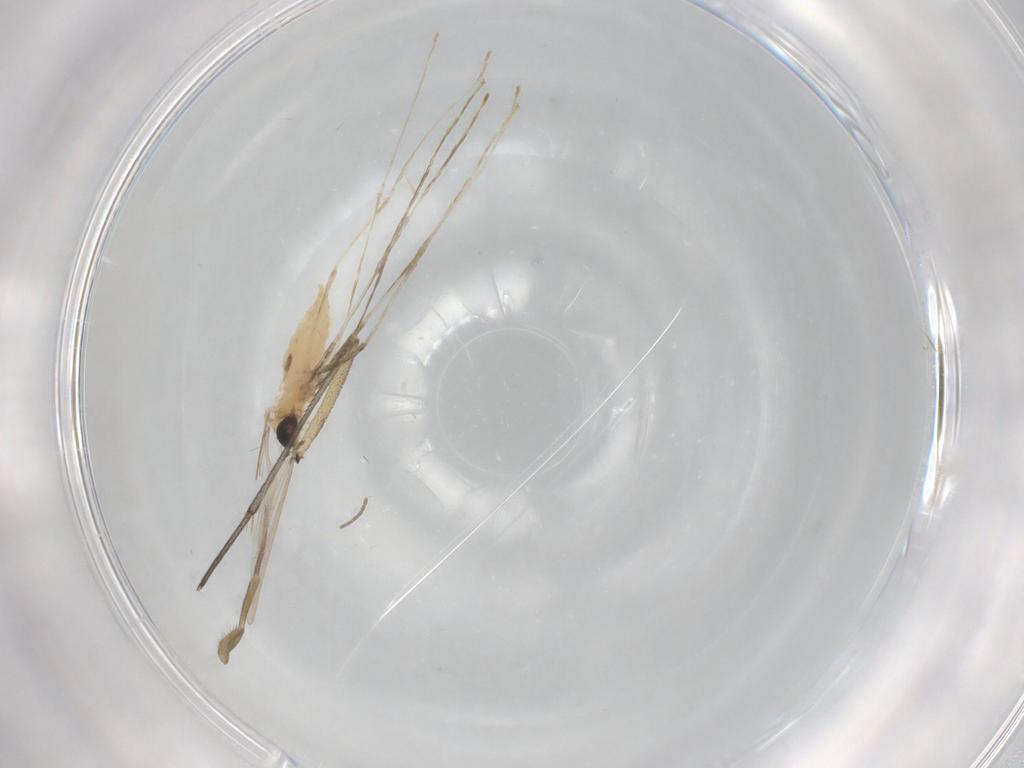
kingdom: Animalia
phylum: Arthropoda
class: Insecta
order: Diptera
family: Cecidomyiidae
